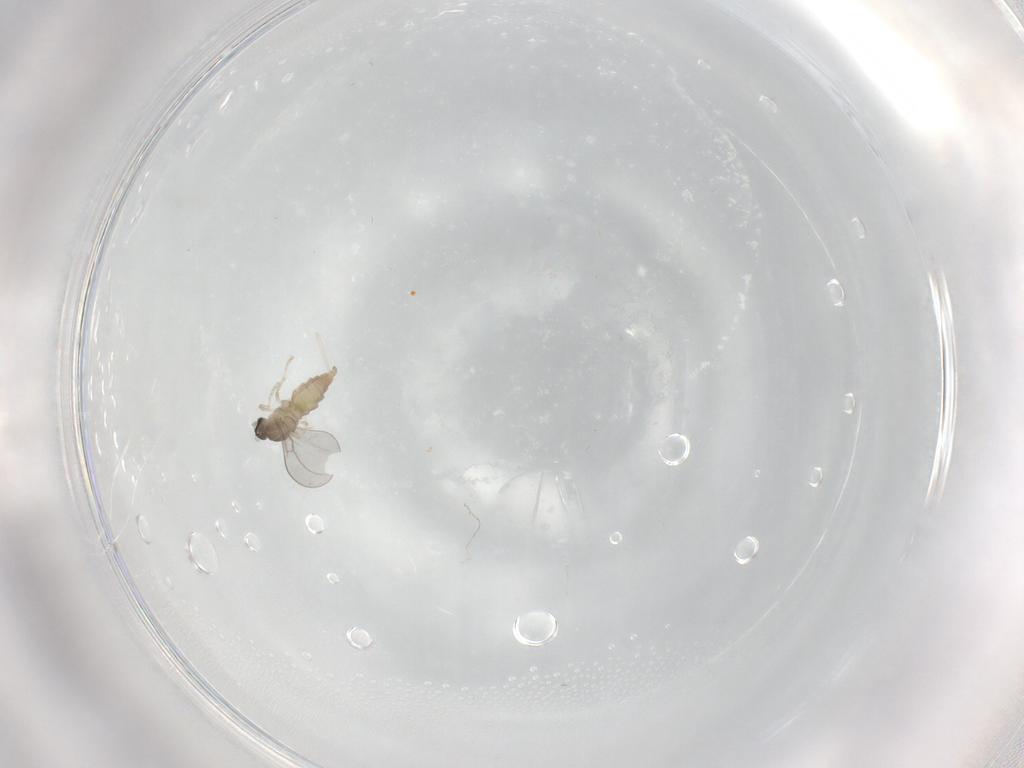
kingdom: Animalia
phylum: Arthropoda
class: Insecta
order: Diptera
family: Cecidomyiidae
